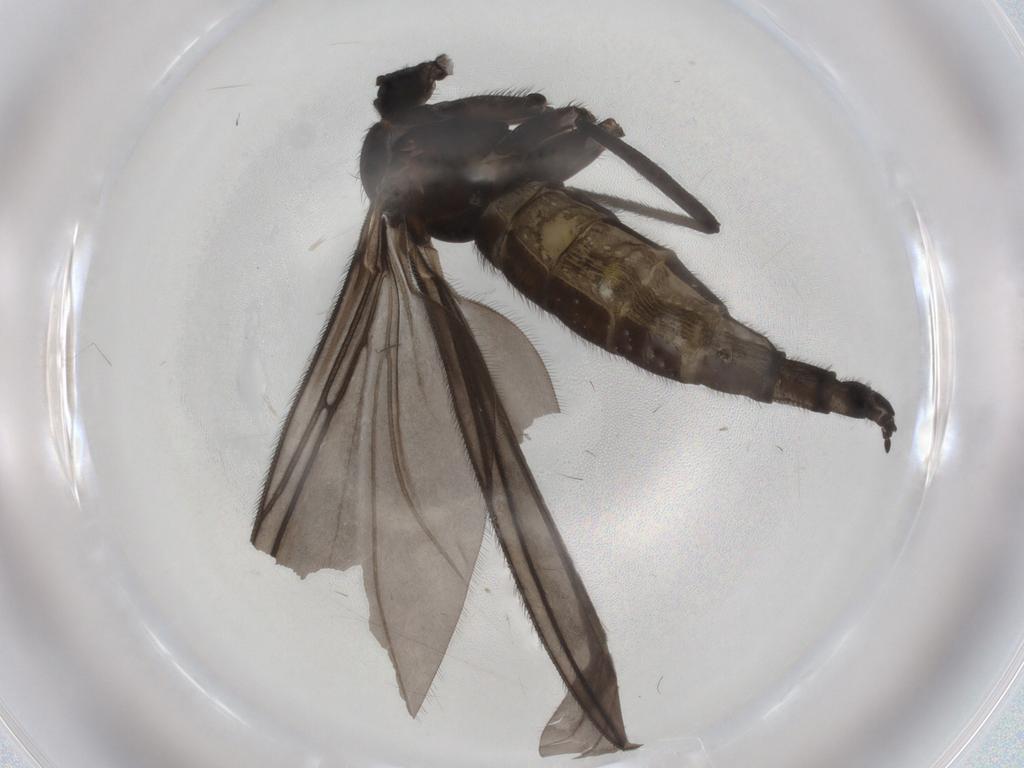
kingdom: Animalia
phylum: Arthropoda
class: Insecta
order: Diptera
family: Sciaridae
